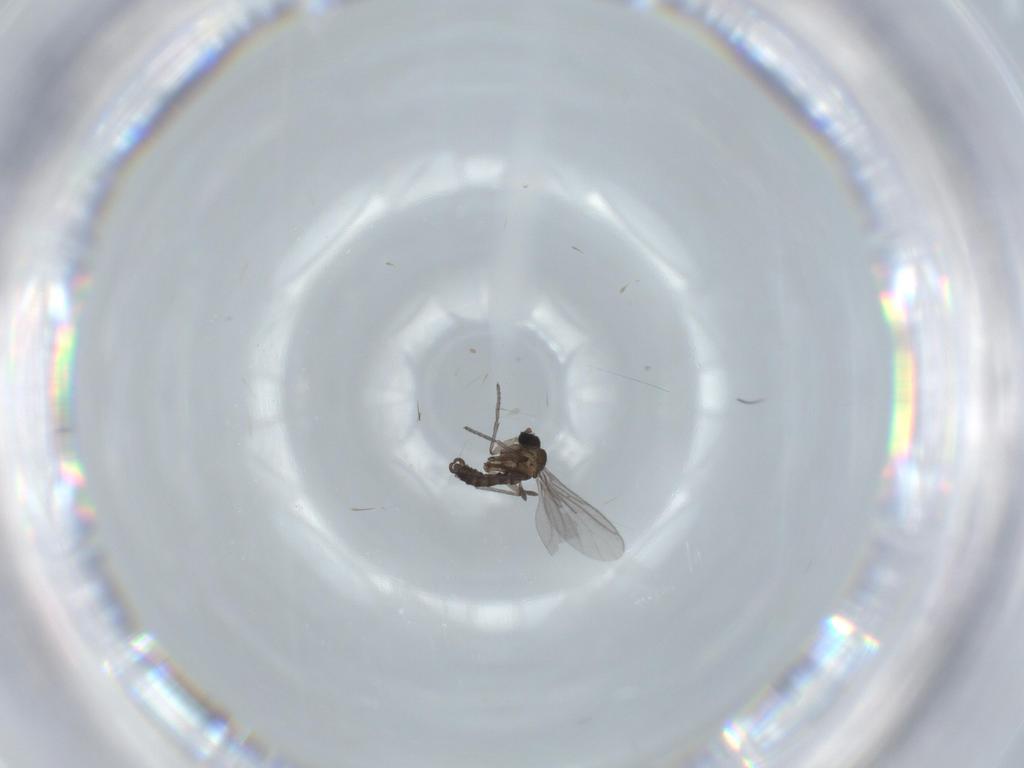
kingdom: Animalia
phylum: Arthropoda
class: Insecta
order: Diptera
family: Sciaridae
